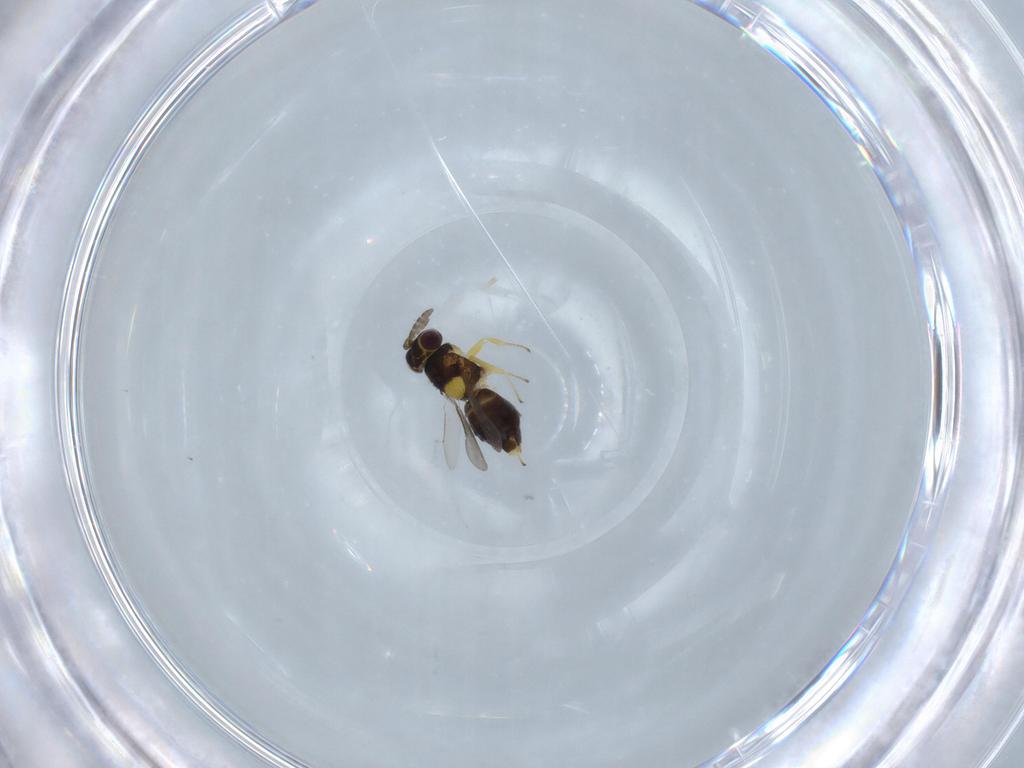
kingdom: Animalia
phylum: Arthropoda
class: Insecta
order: Hymenoptera
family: Aphelinidae
